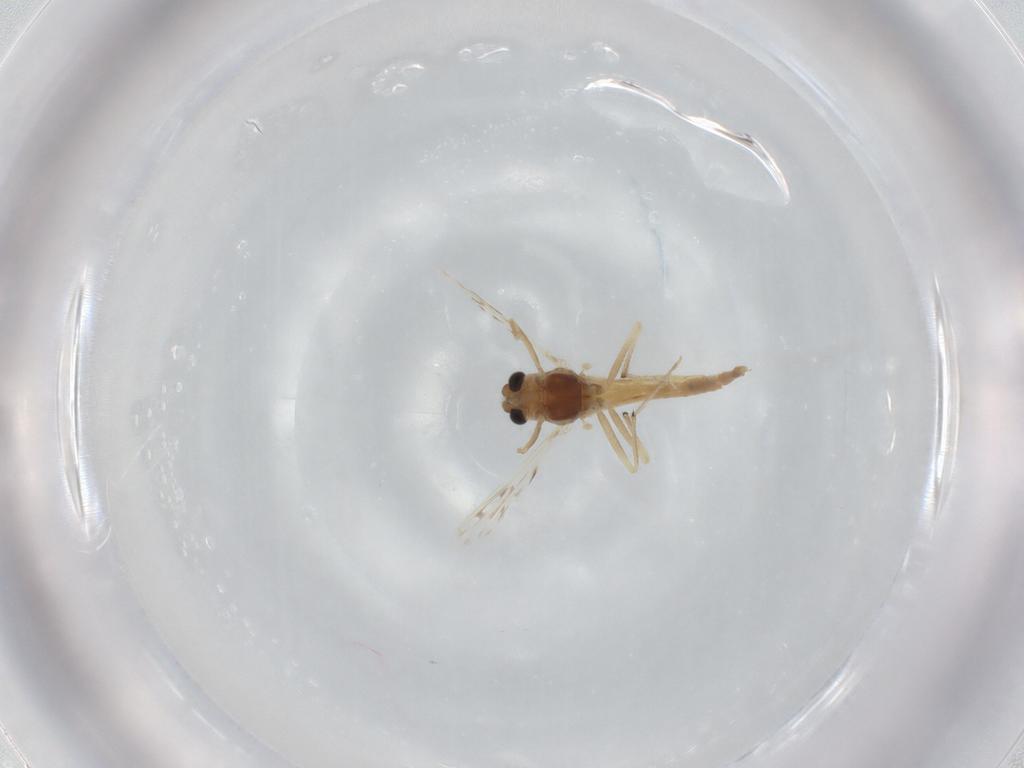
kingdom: Animalia
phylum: Arthropoda
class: Insecta
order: Diptera
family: Chironomidae
